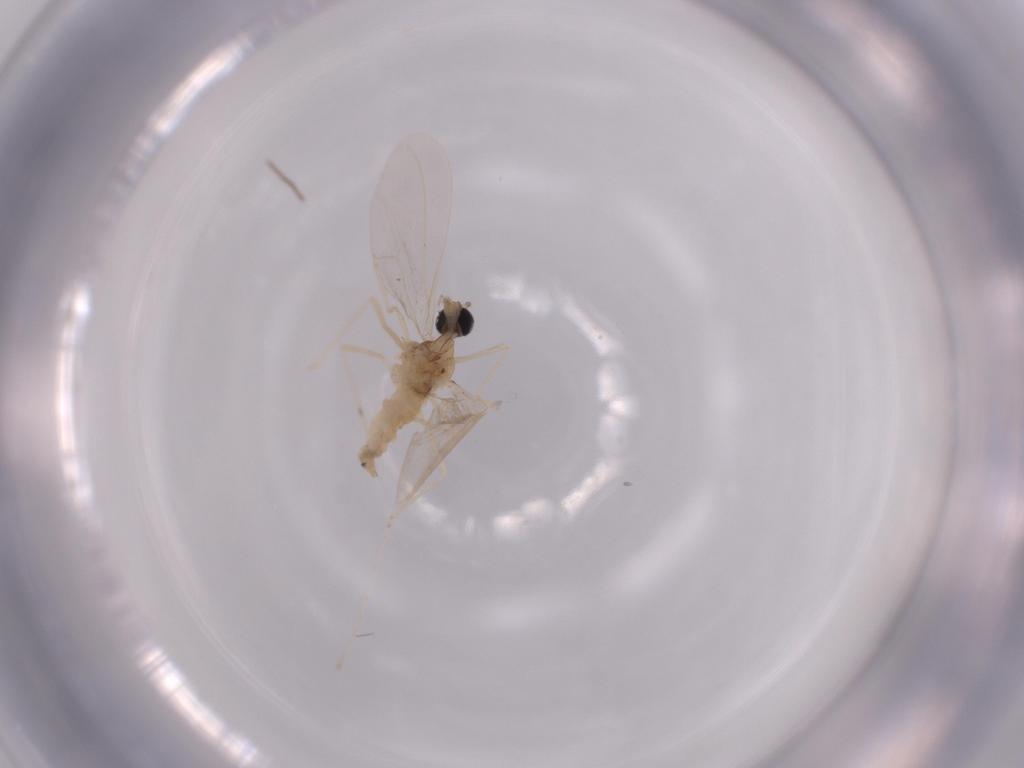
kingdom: Animalia
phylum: Arthropoda
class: Insecta
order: Diptera
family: Cecidomyiidae
